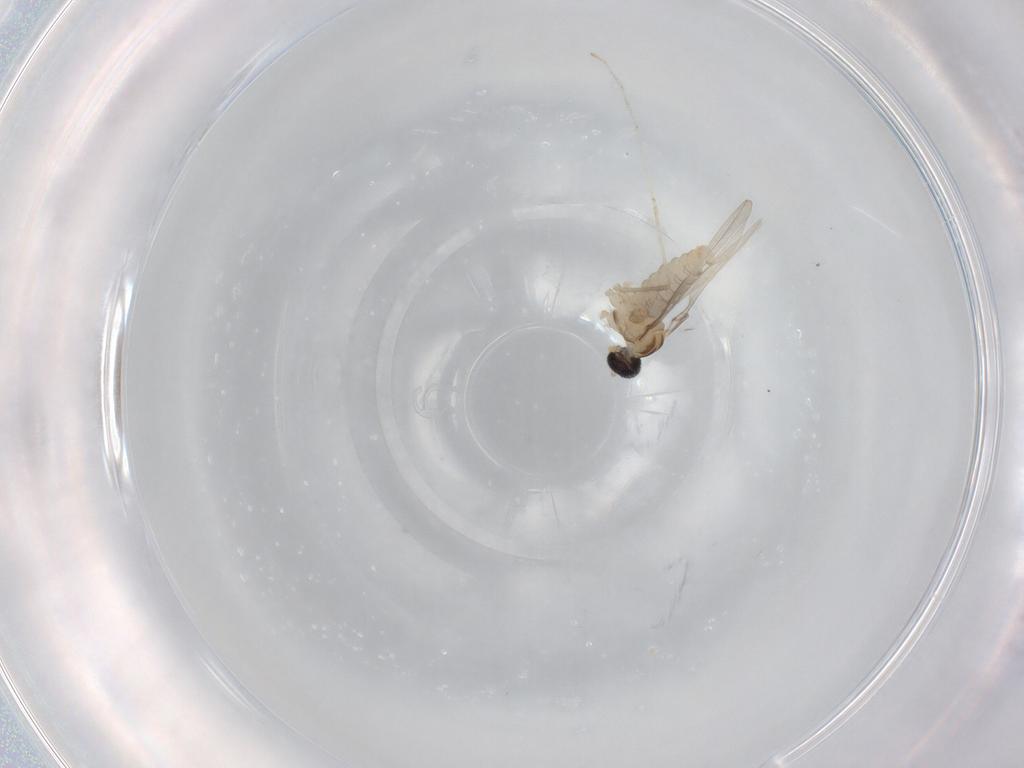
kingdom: Animalia
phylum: Arthropoda
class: Insecta
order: Diptera
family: Cecidomyiidae
